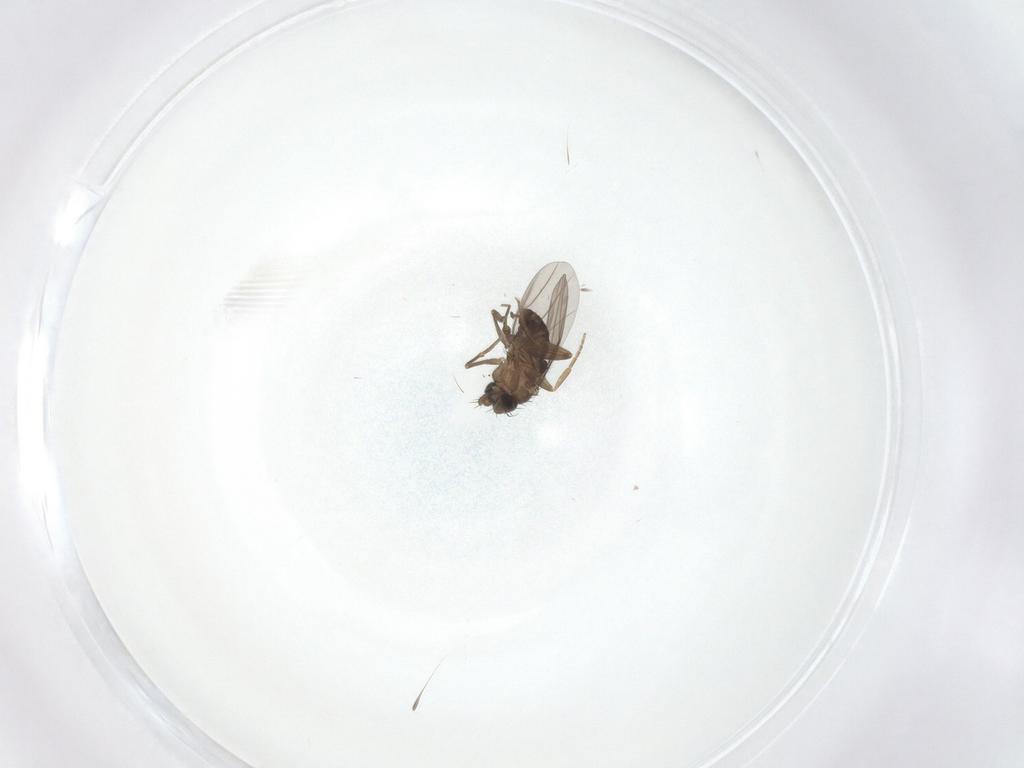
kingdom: Animalia
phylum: Arthropoda
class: Insecta
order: Diptera
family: Phoridae
